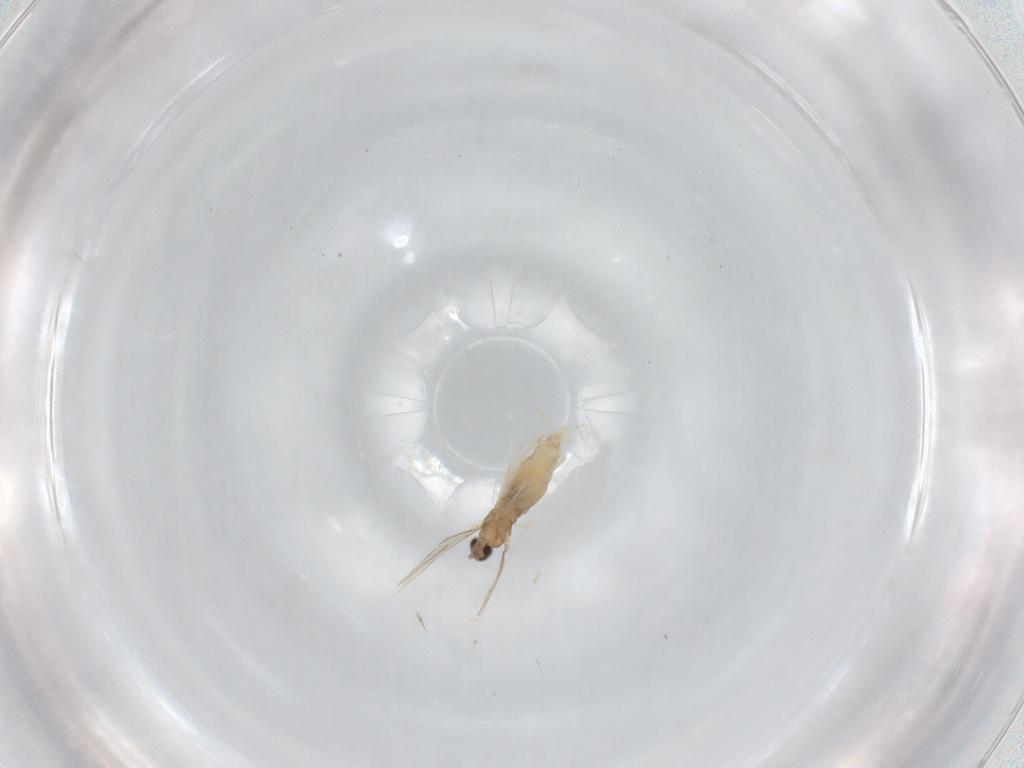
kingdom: Animalia
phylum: Arthropoda
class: Insecta
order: Diptera
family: Cecidomyiidae
